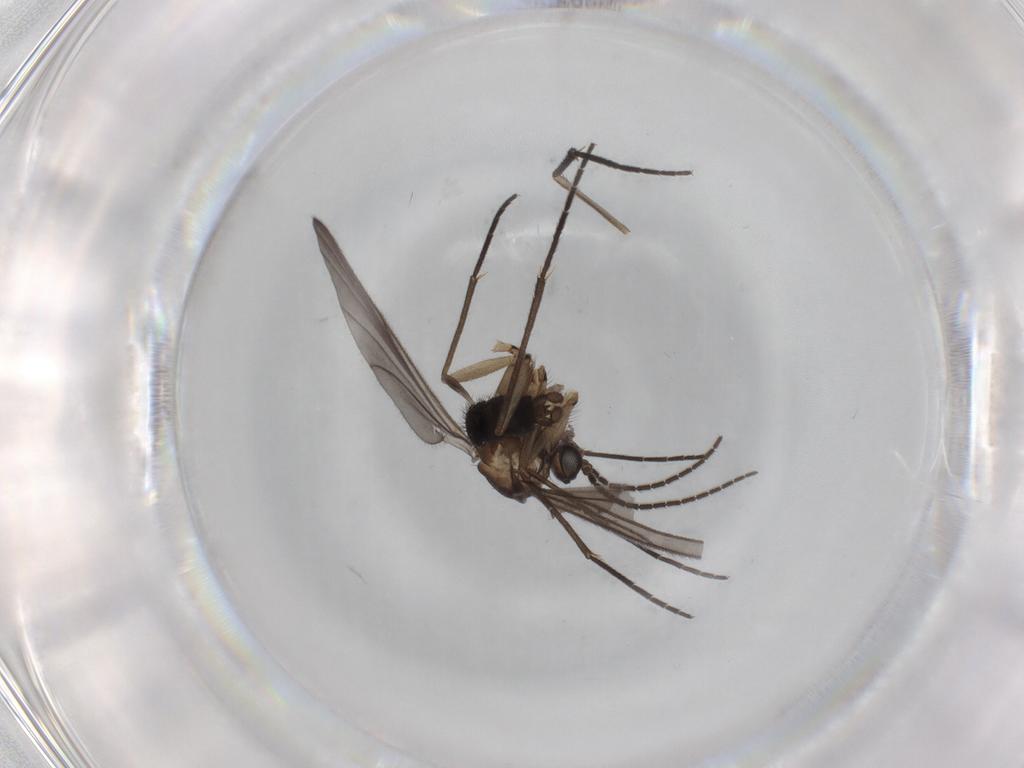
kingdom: Animalia
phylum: Arthropoda
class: Insecta
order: Diptera
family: Sciaridae
